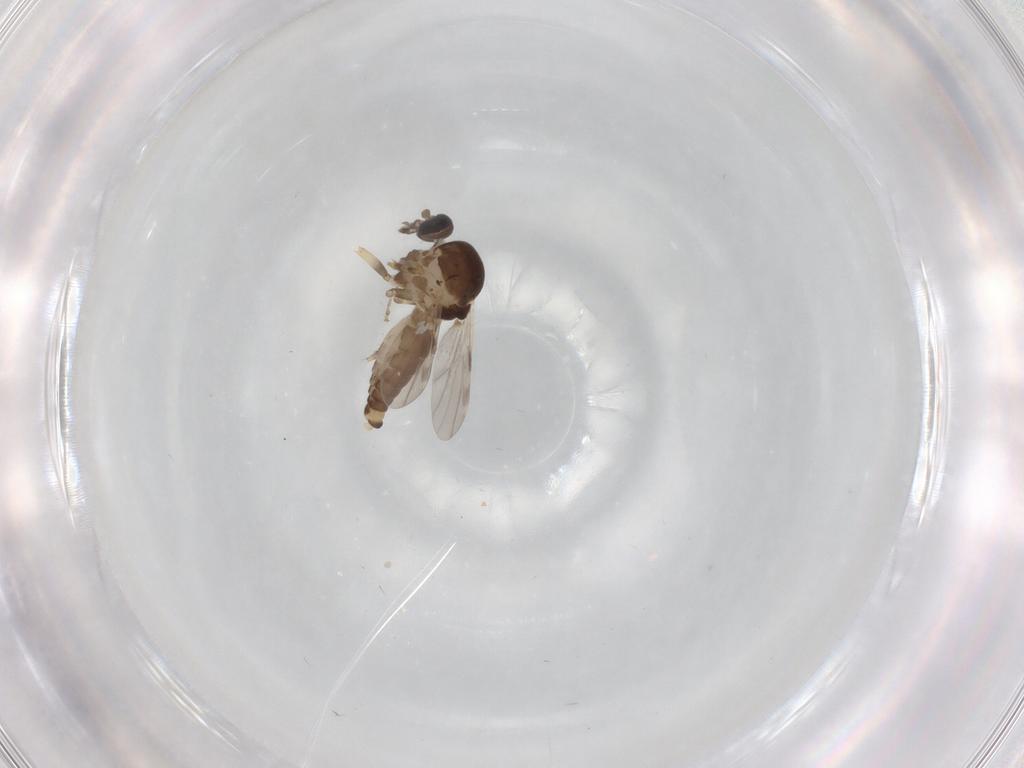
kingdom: Animalia
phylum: Arthropoda
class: Insecta
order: Diptera
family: Ceratopogonidae
